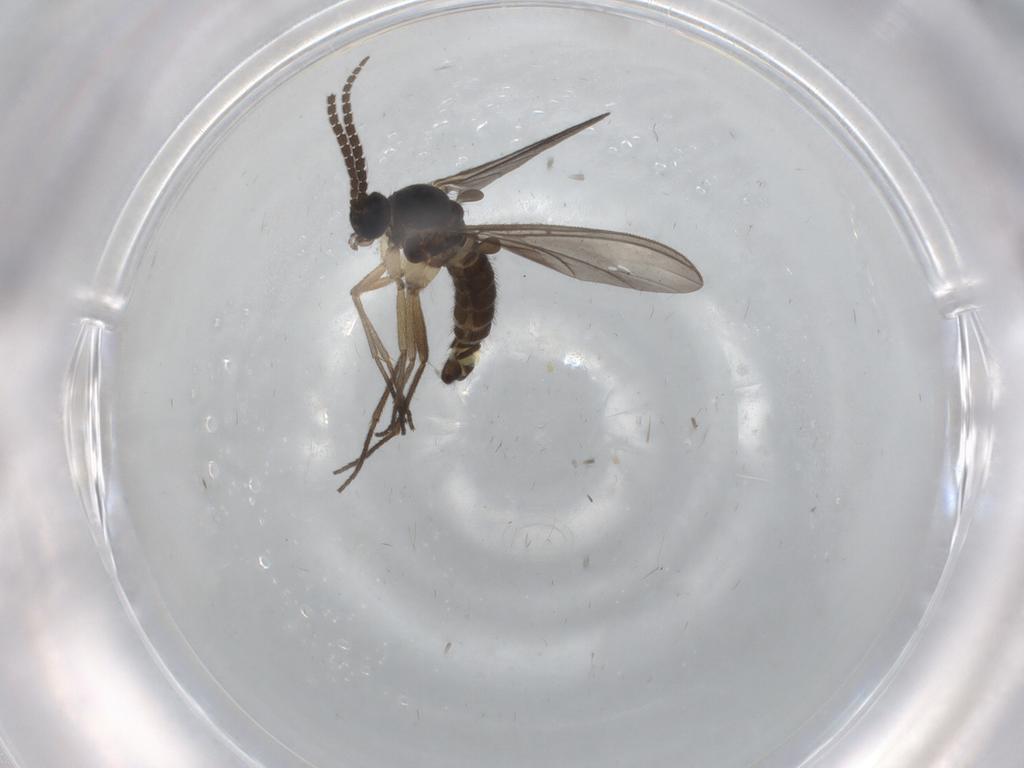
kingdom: Animalia
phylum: Arthropoda
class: Insecta
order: Diptera
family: Sciaridae
